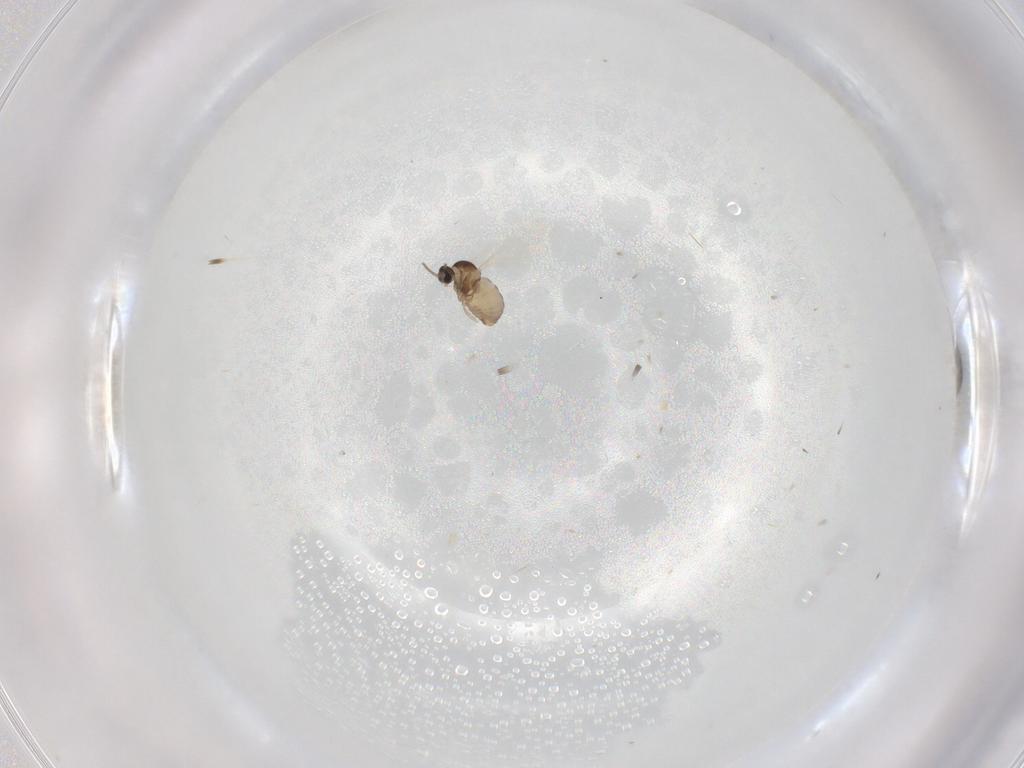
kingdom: Animalia
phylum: Arthropoda
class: Insecta
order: Diptera
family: Cecidomyiidae
